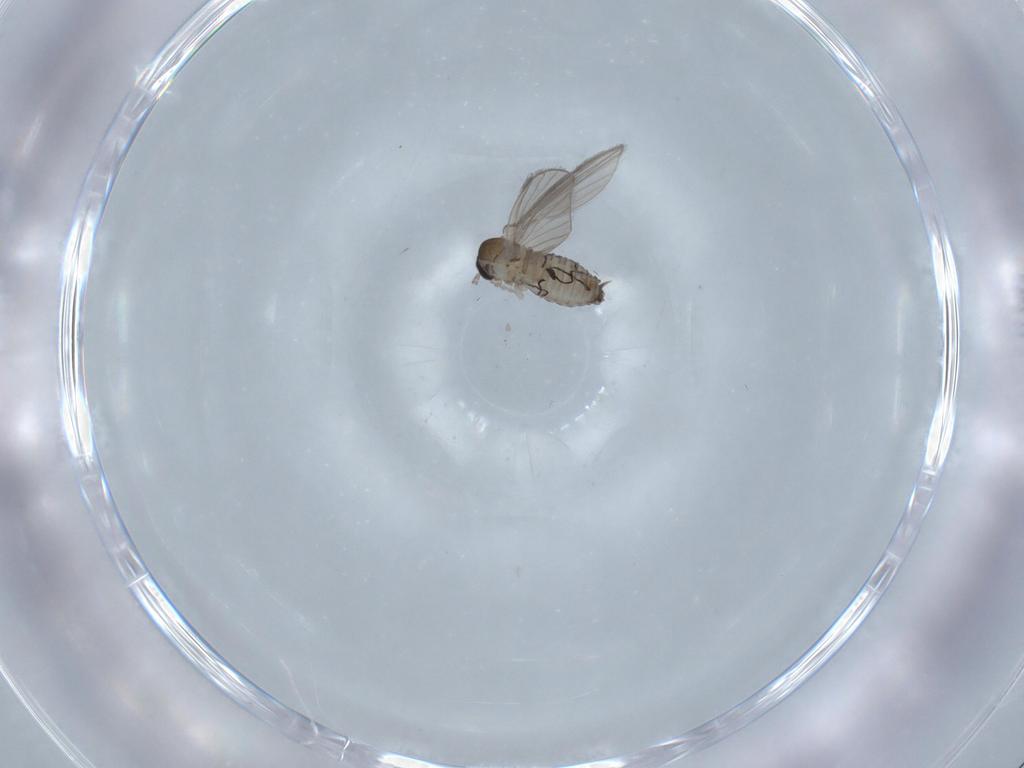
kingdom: Animalia
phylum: Arthropoda
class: Insecta
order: Diptera
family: Psychodidae
